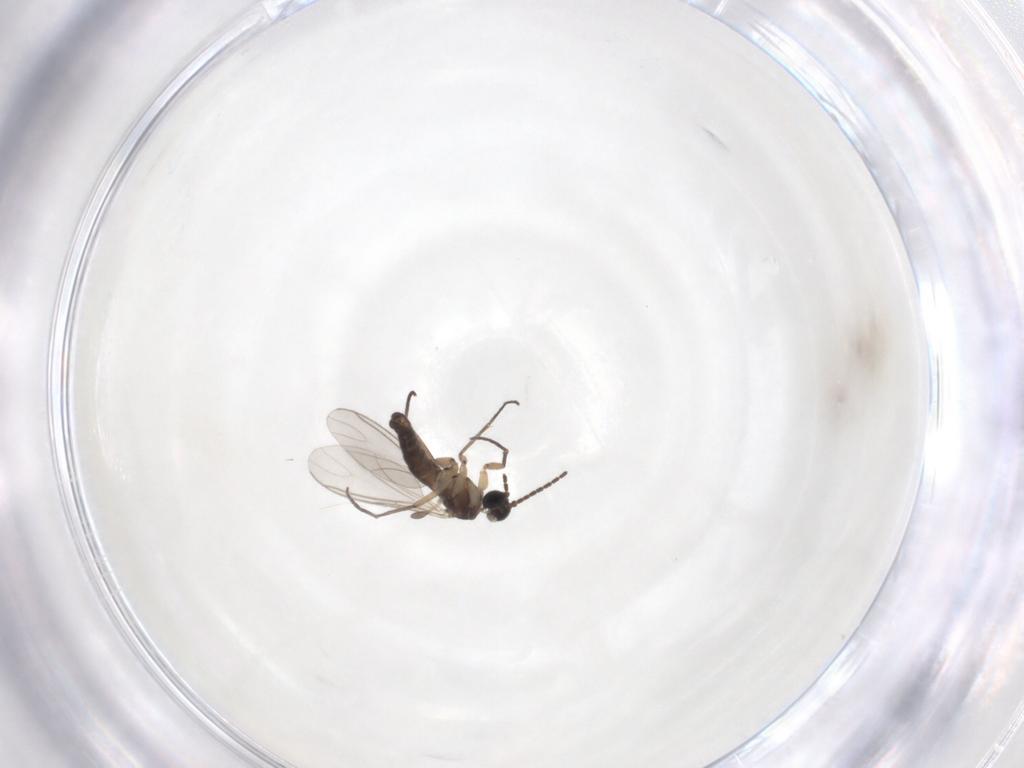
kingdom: Animalia
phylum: Arthropoda
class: Insecta
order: Diptera
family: Sciaridae
